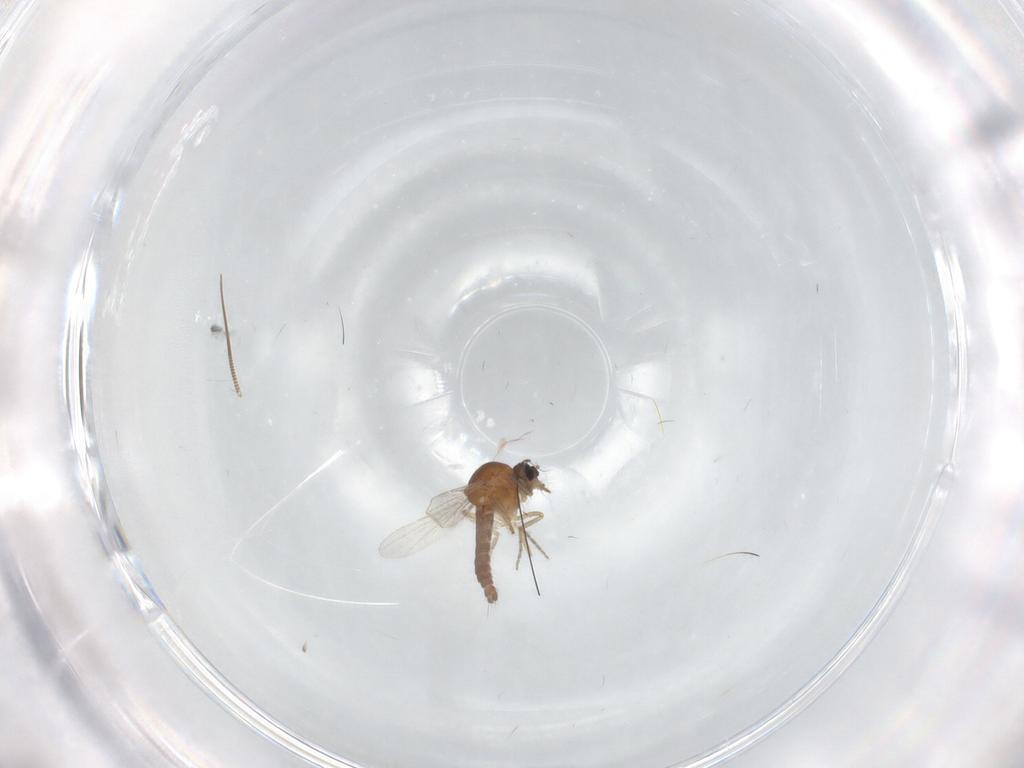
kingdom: Animalia
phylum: Arthropoda
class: Insecta
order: Diptera
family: Ceratopogonidae
